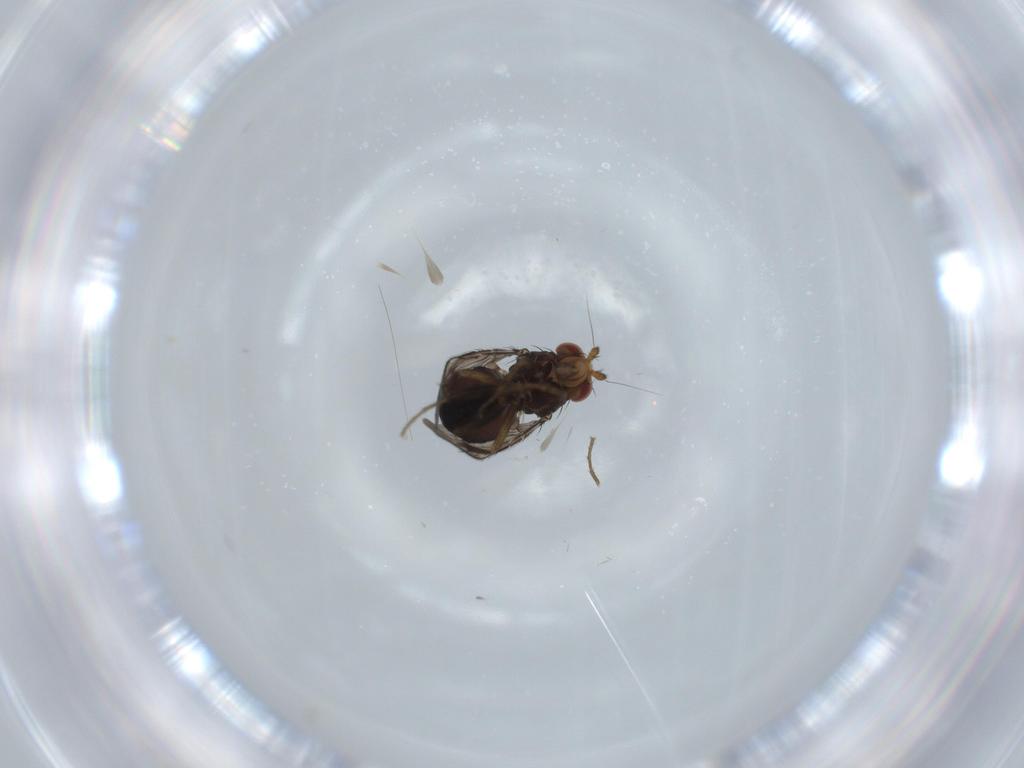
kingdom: Animalia
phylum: Arthropoda
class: Insecta
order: Diptera
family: Sphaeroceridae
